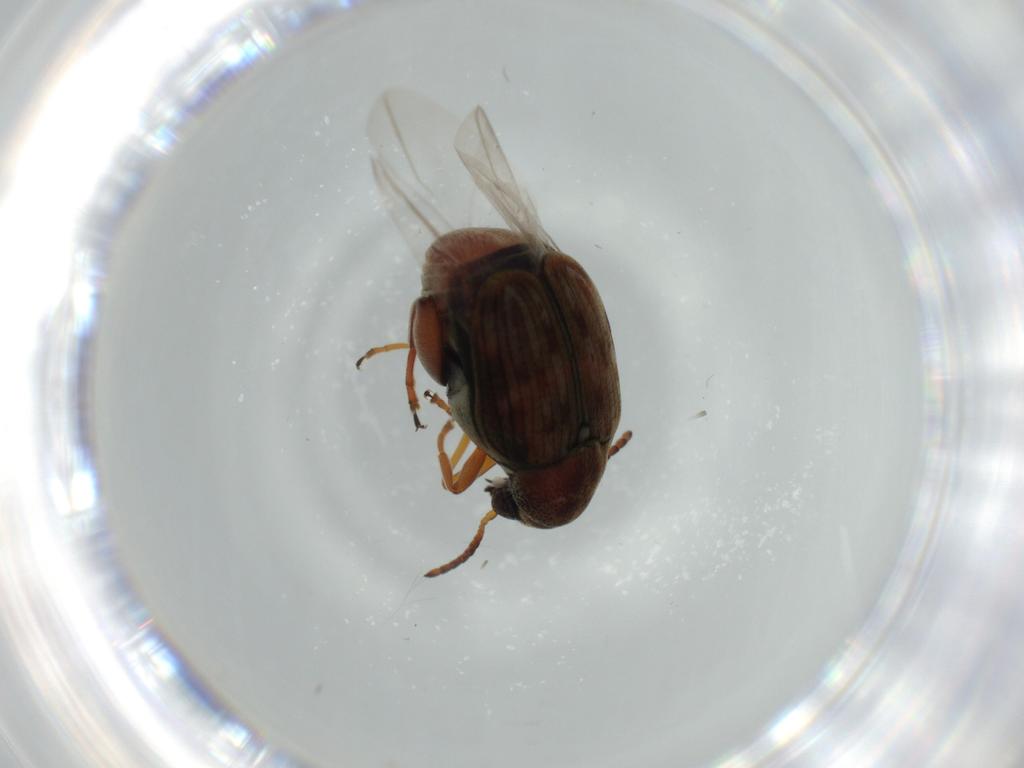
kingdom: Animalia
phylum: Arthropoda
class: Insecta
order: Coleoptera
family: Chrysomelidae
